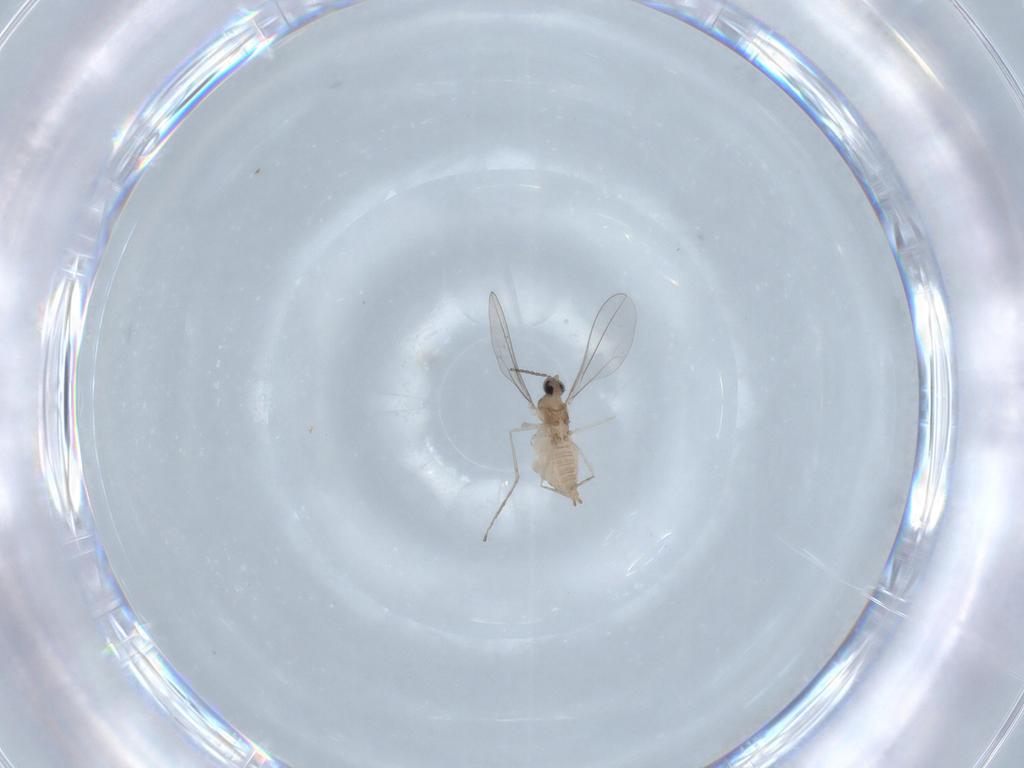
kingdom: Animalia
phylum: Arthropoda
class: Insecta
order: Diptera
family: Cecidomyiidae
